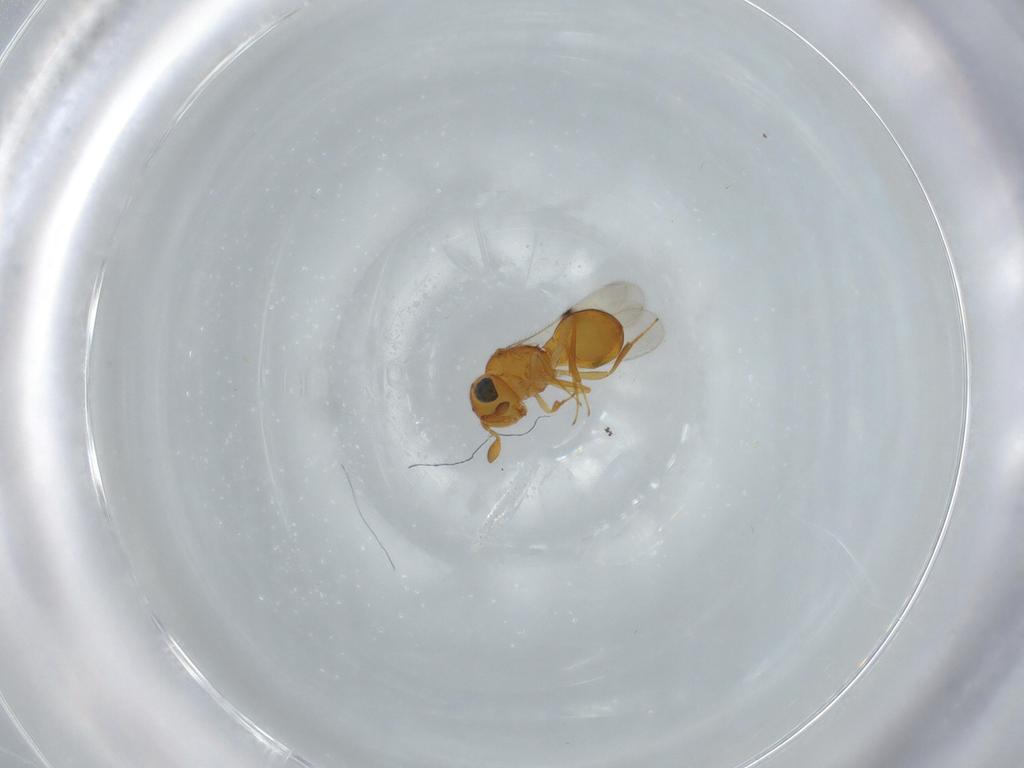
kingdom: Animalia
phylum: Arthropoda
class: Insecta
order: Hymenoptera
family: Scelionidae
